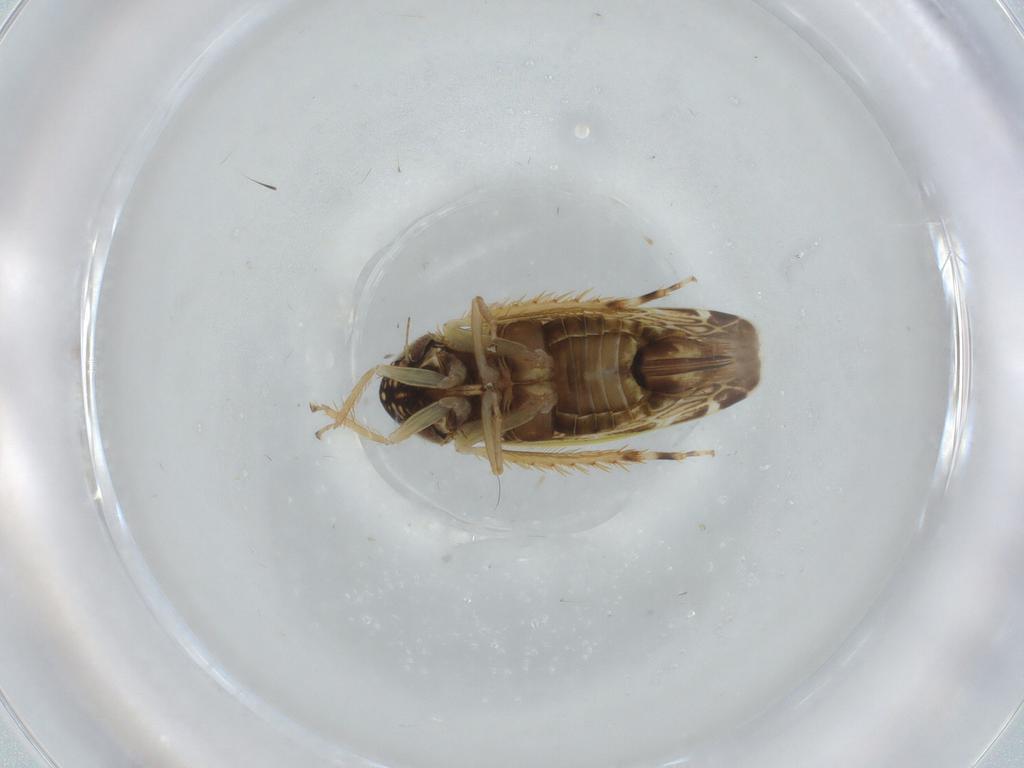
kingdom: Animalia
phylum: Arthropoda
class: Insecta
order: Hemiptera
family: Cicadellidae
